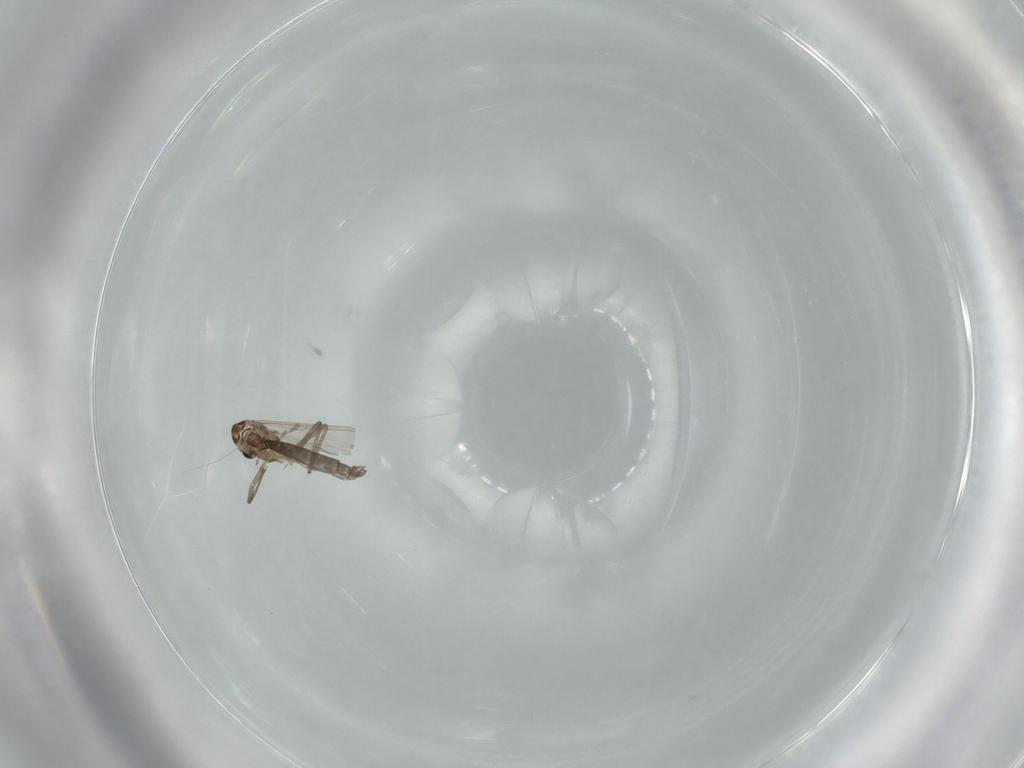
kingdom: Animalia
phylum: Arthropoda
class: Insecta
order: Diptera
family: Chironomidae
